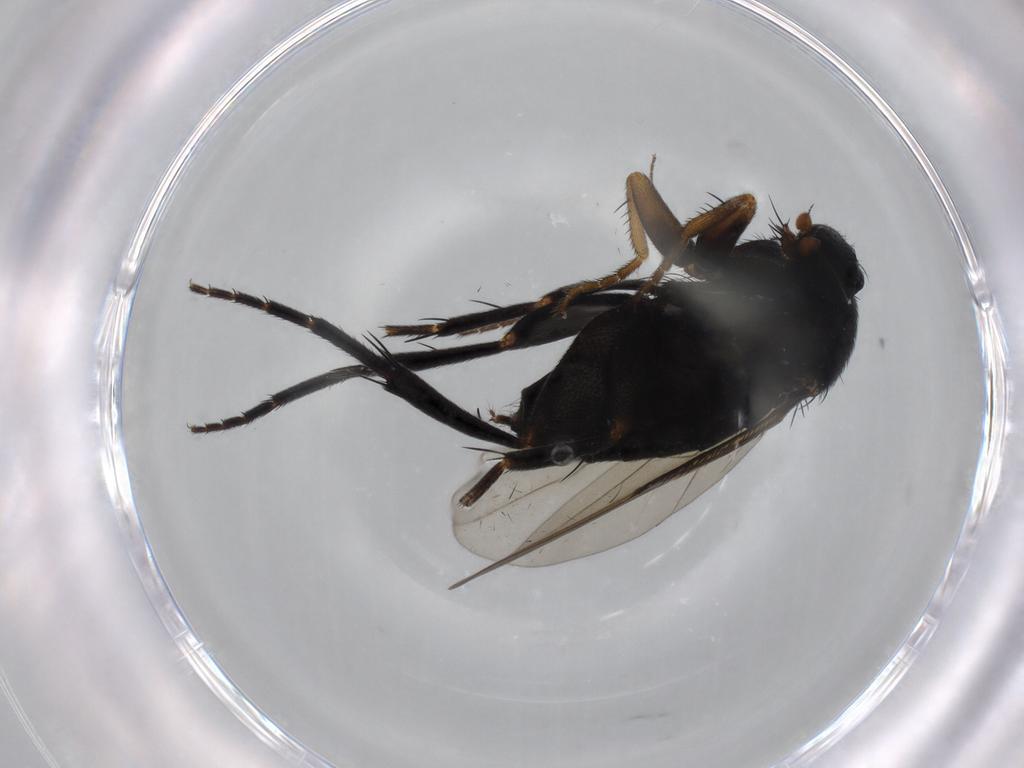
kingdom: Animalia
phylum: Arthropoda
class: Insecta
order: Diptera
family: Phoridae
